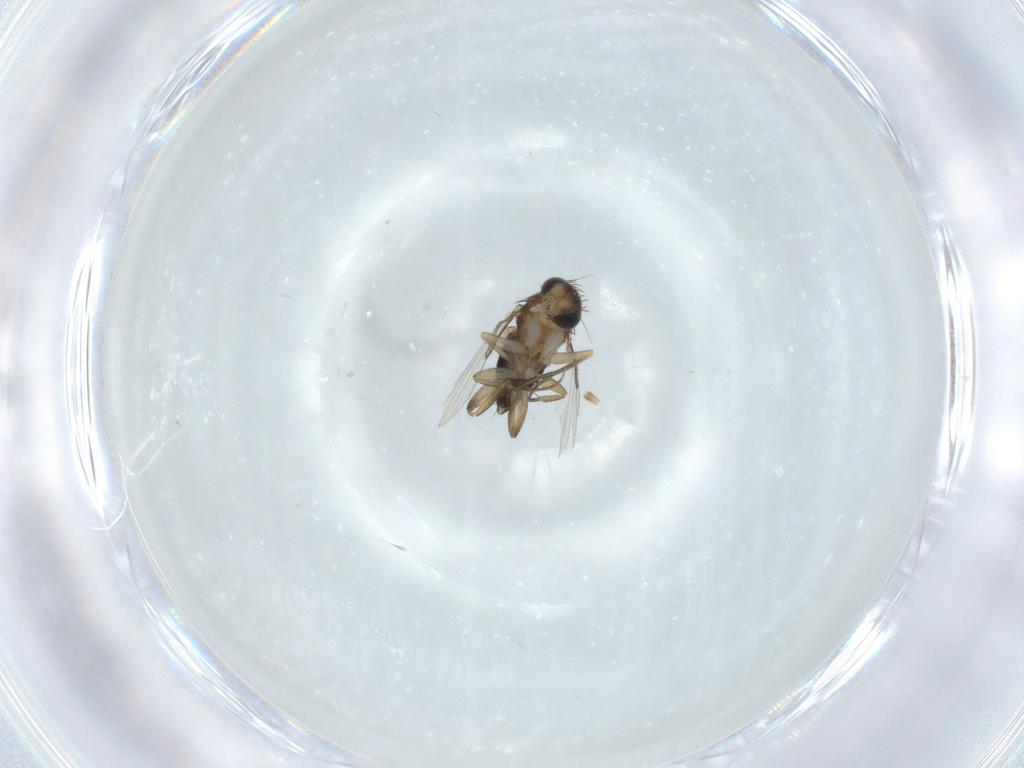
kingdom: Animalia
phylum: Arthropoda
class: Insecta
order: Diptera
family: Phoridae
